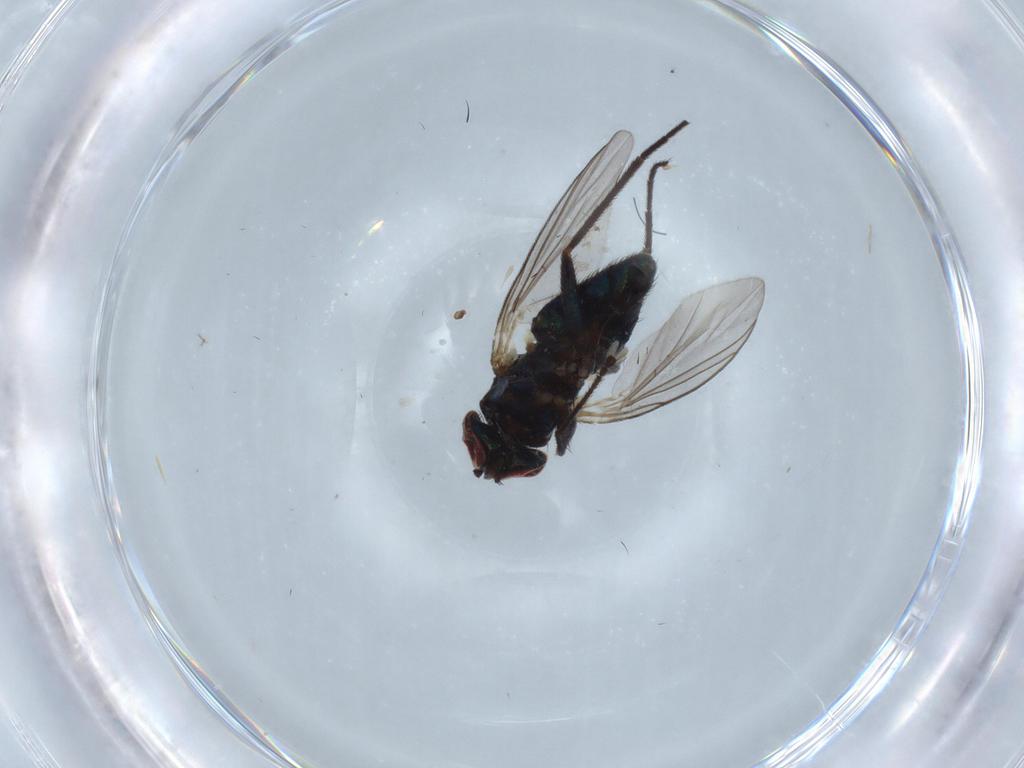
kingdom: Animalia
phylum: Arthropoda
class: Insecta
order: Diptera
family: Dolichopodidae
